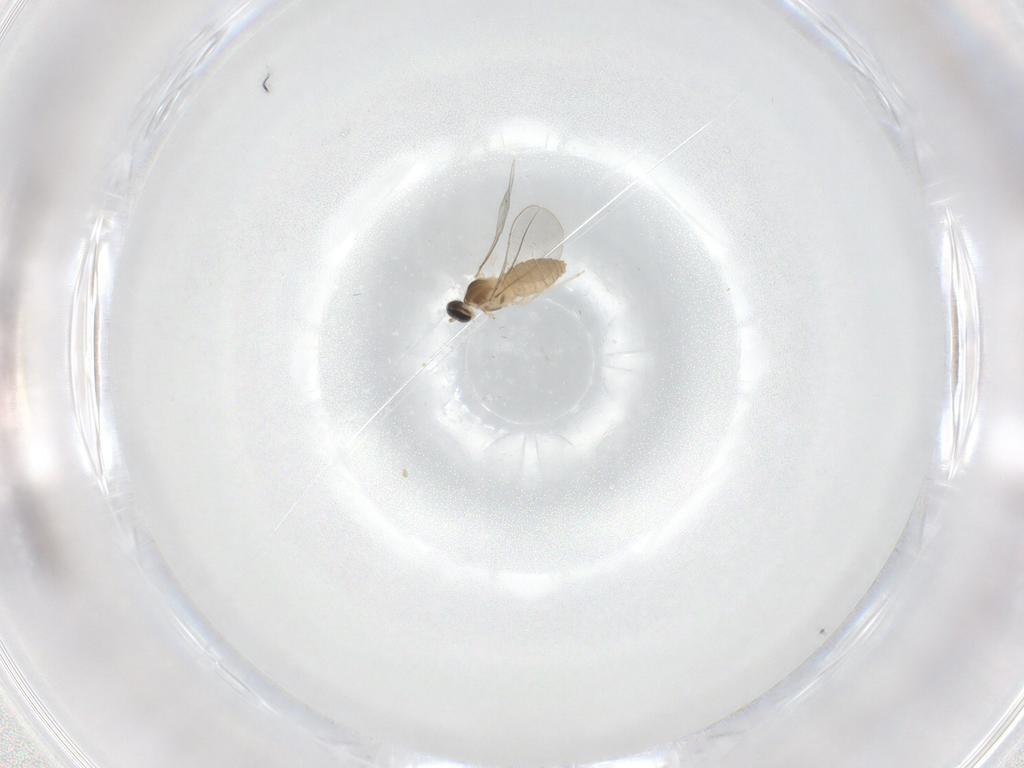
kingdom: Animalia
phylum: Arthropoda
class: Insecta
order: Diptera
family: Cecidomyiidae
